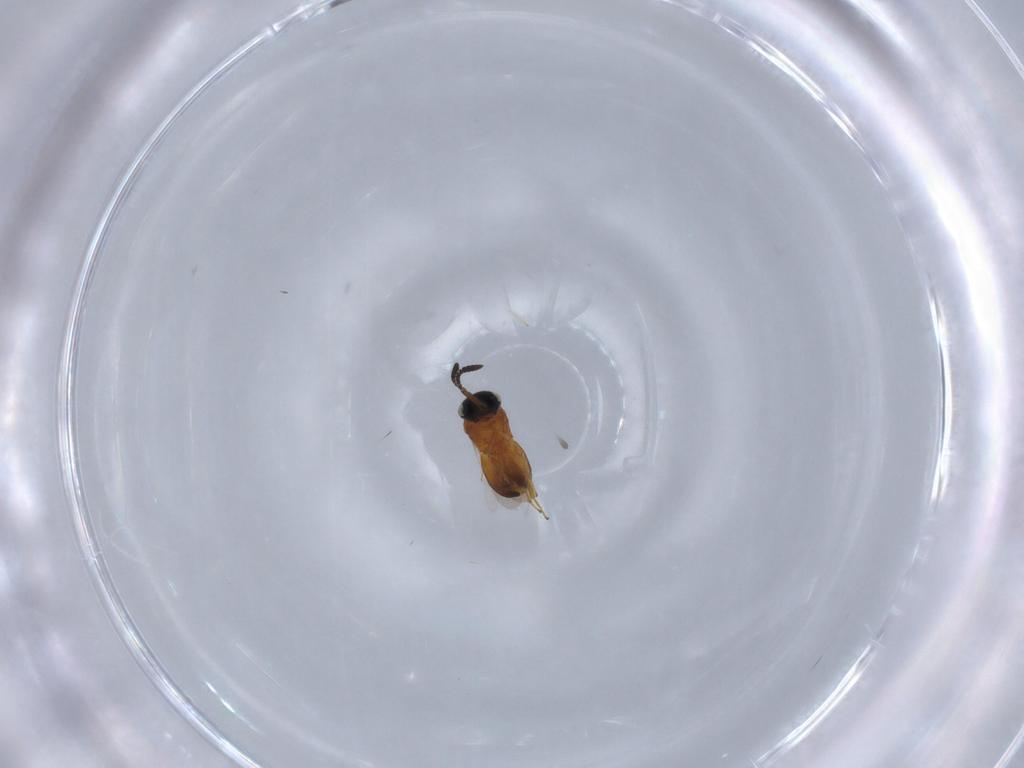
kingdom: Animalia
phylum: Arthropoda
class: Insecta
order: Hymenoptera
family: Scelionidae
